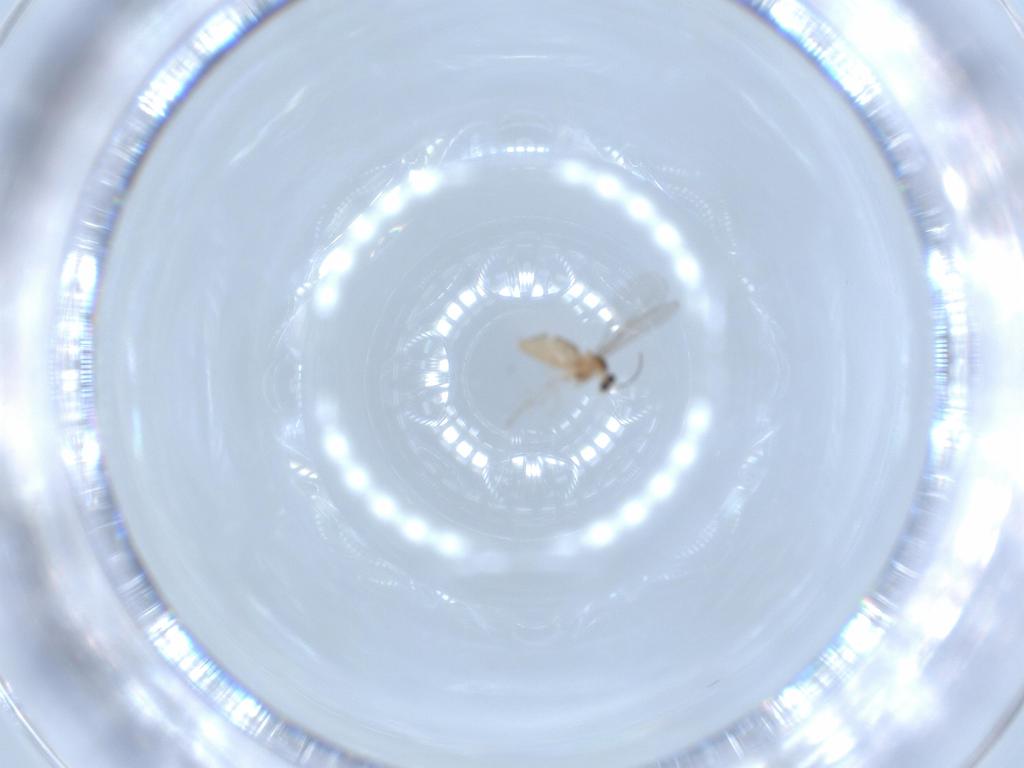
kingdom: Animalia
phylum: Arthropoda
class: Insecta
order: Diptera
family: Cecidomyiidae
